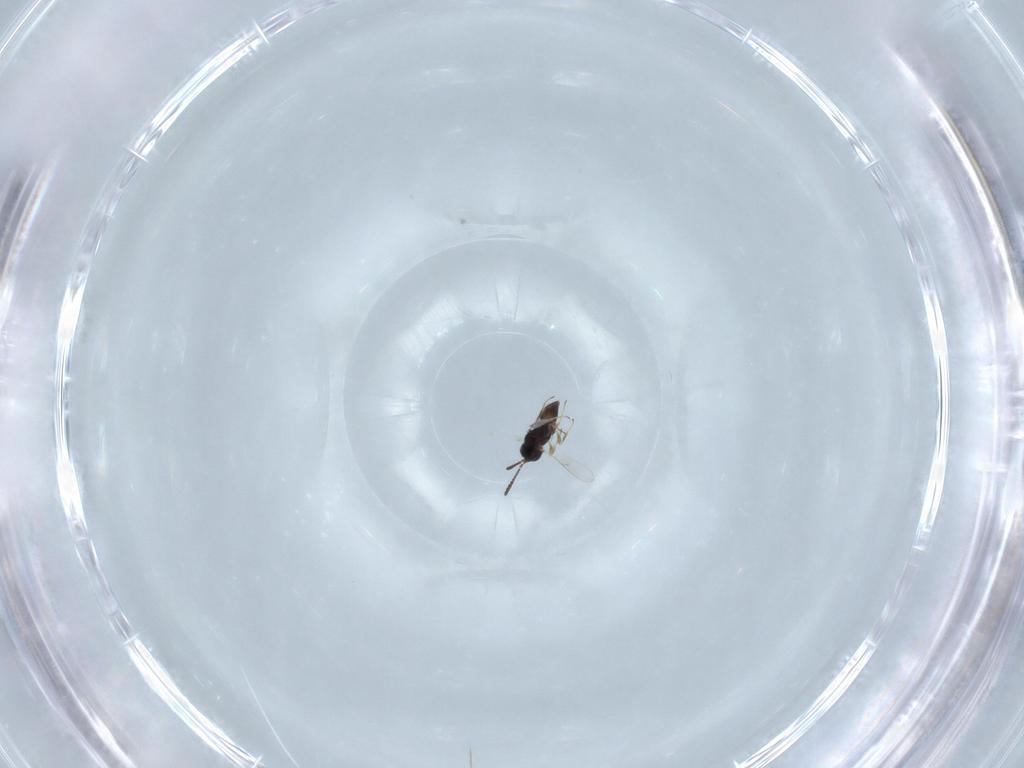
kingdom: Animalia
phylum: Arthropoda
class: Insecta
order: Hymenoptera
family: Scelionidae
